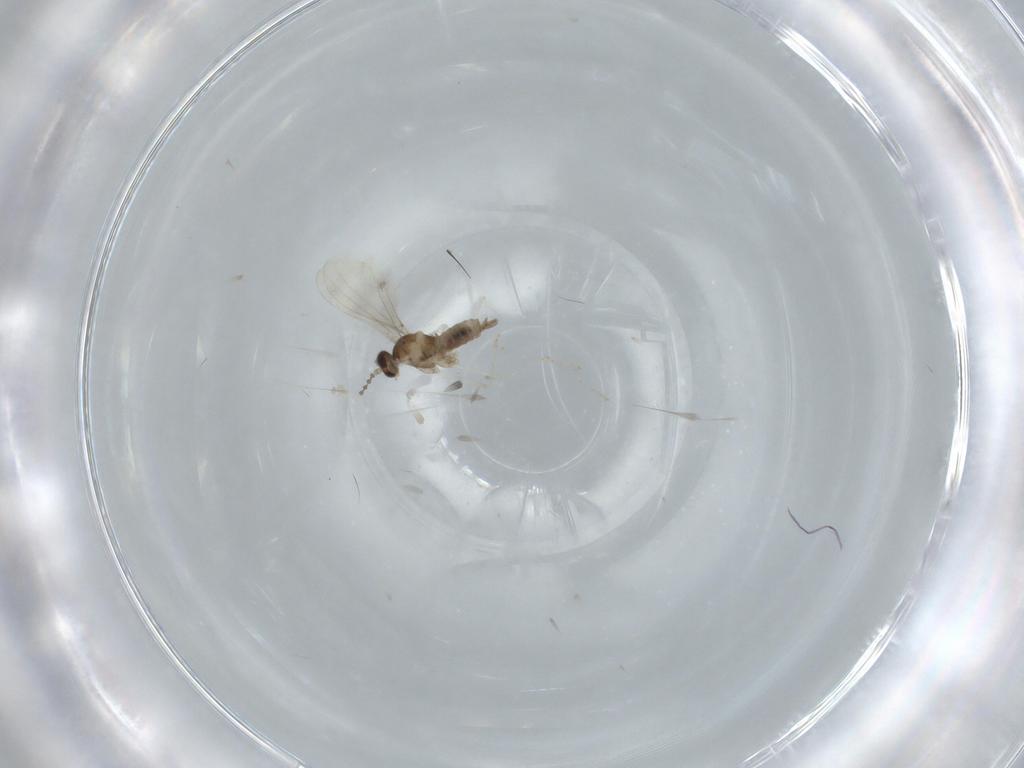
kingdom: Animalia
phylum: Arthropoda
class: Insecta
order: Diptera
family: Cecidomyiidae
